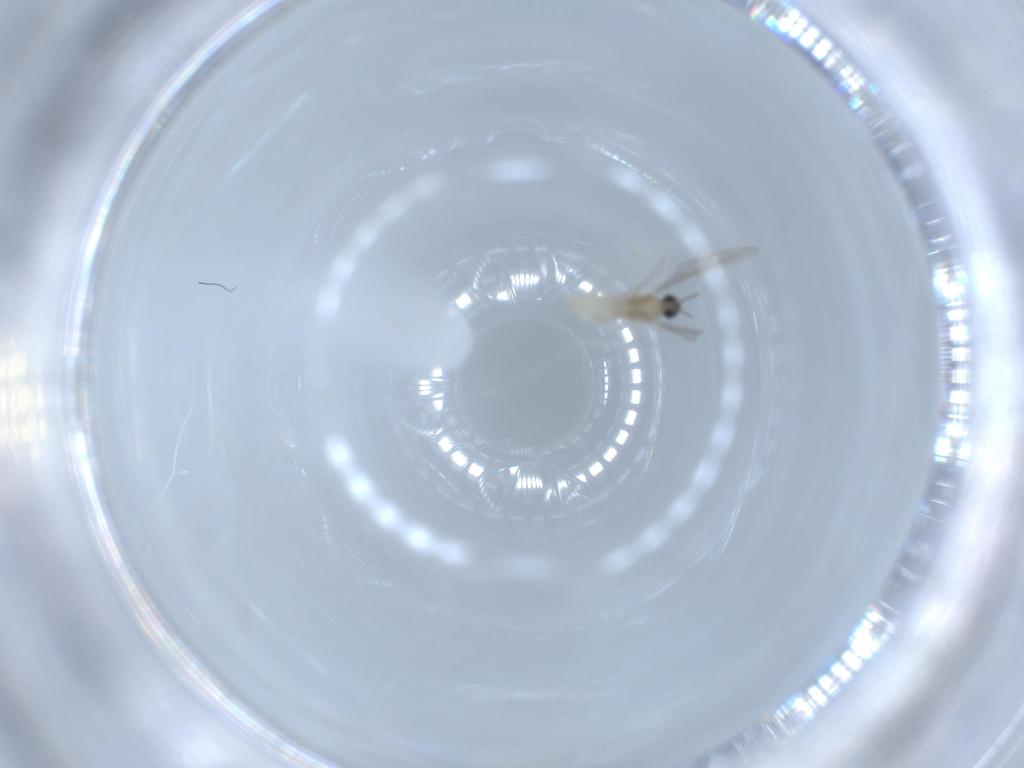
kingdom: Animalia
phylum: Arthropoda
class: Insecta
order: Diptera
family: Cecidomyiidae
